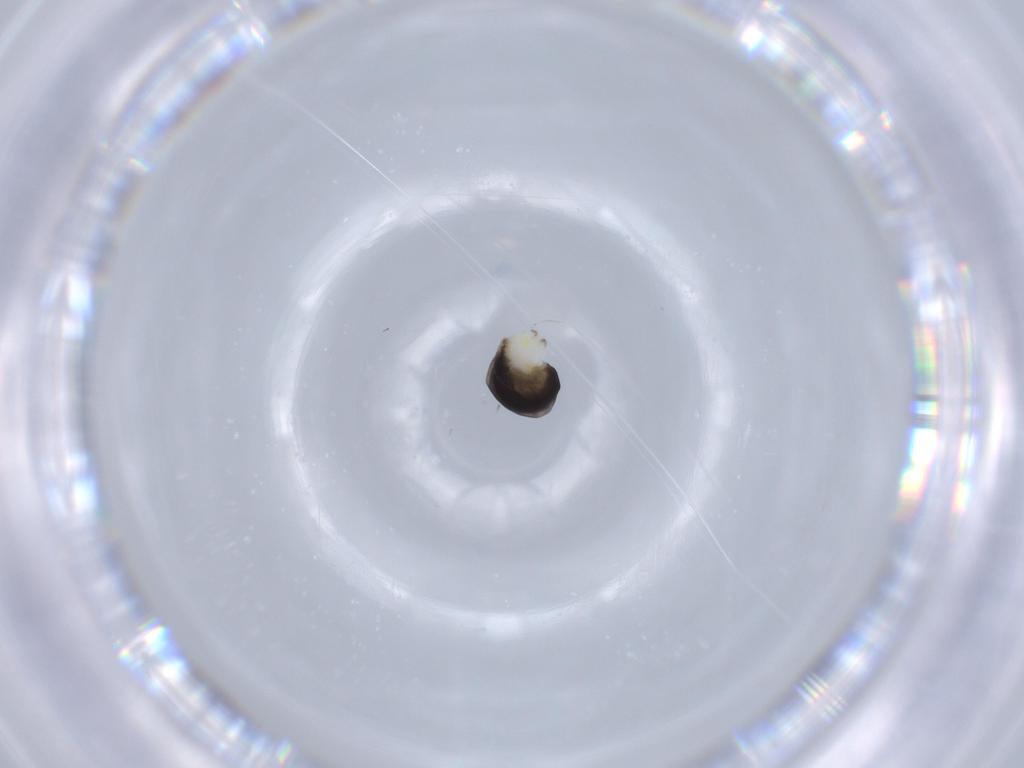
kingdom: Animalia
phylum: Arthropoda
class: Insecta
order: Hymenoptera
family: Dryinidae
